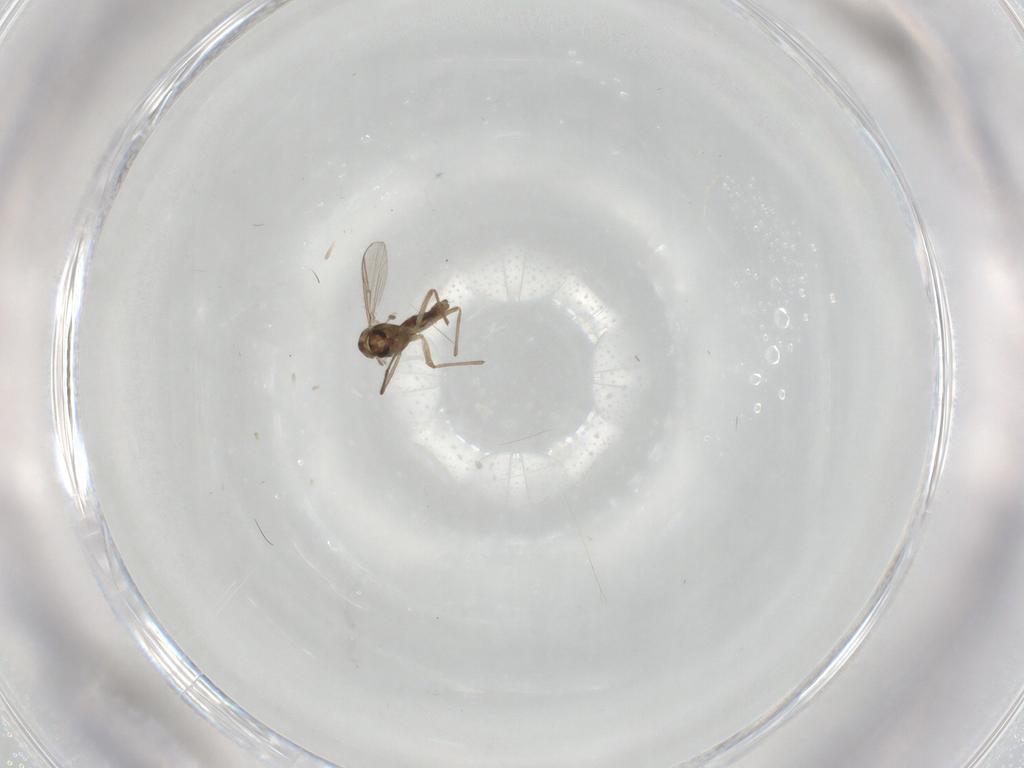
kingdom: Animalia
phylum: Arthropoda
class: Insecta
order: Diptera
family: Chironomidae
